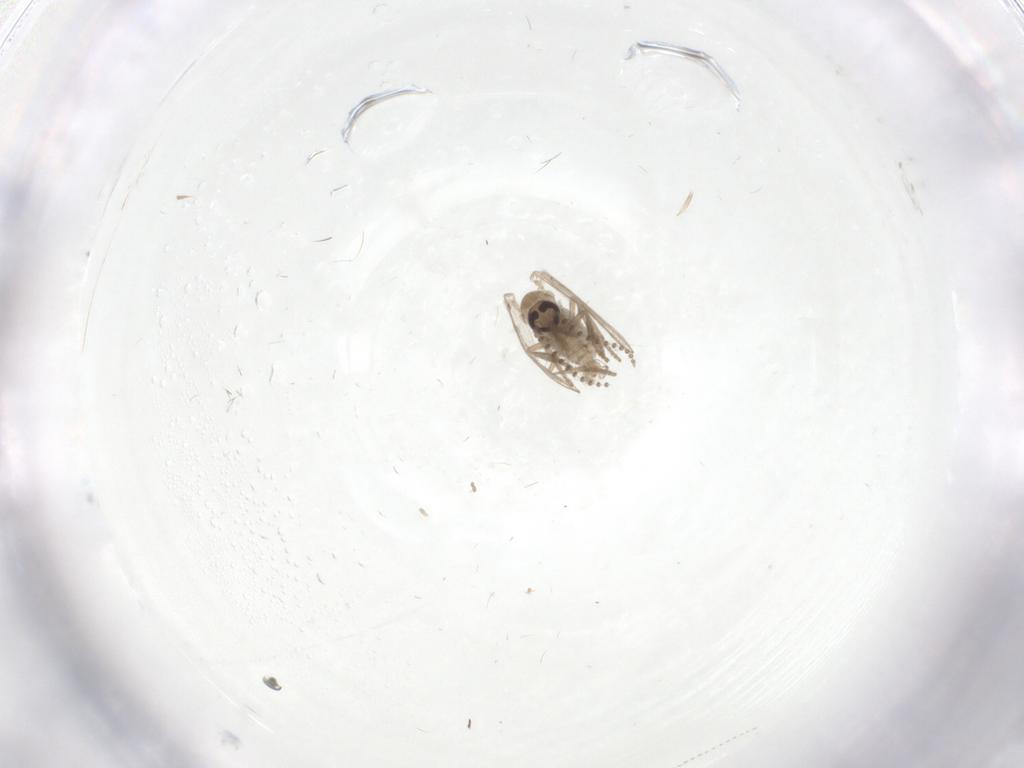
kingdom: Animalia
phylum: Arthropoda
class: Insecta
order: Diptera
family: Psychodidae
